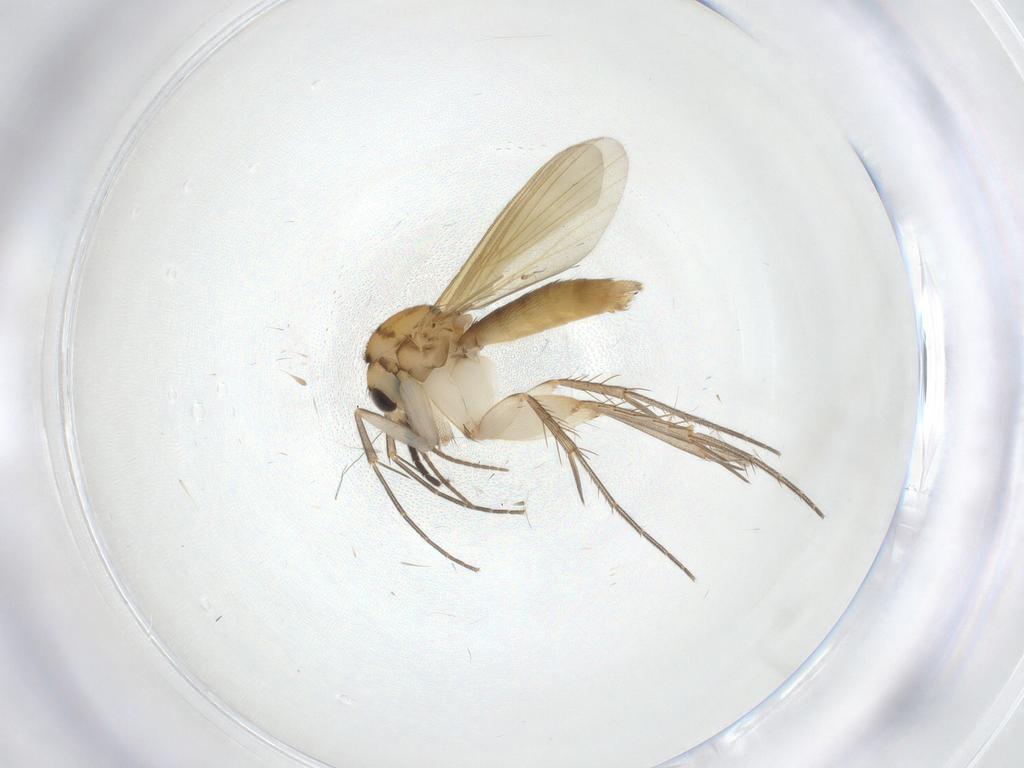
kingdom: Animalia
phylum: Arthropoda
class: Insecta
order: Diptera
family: Mycetophilidae
